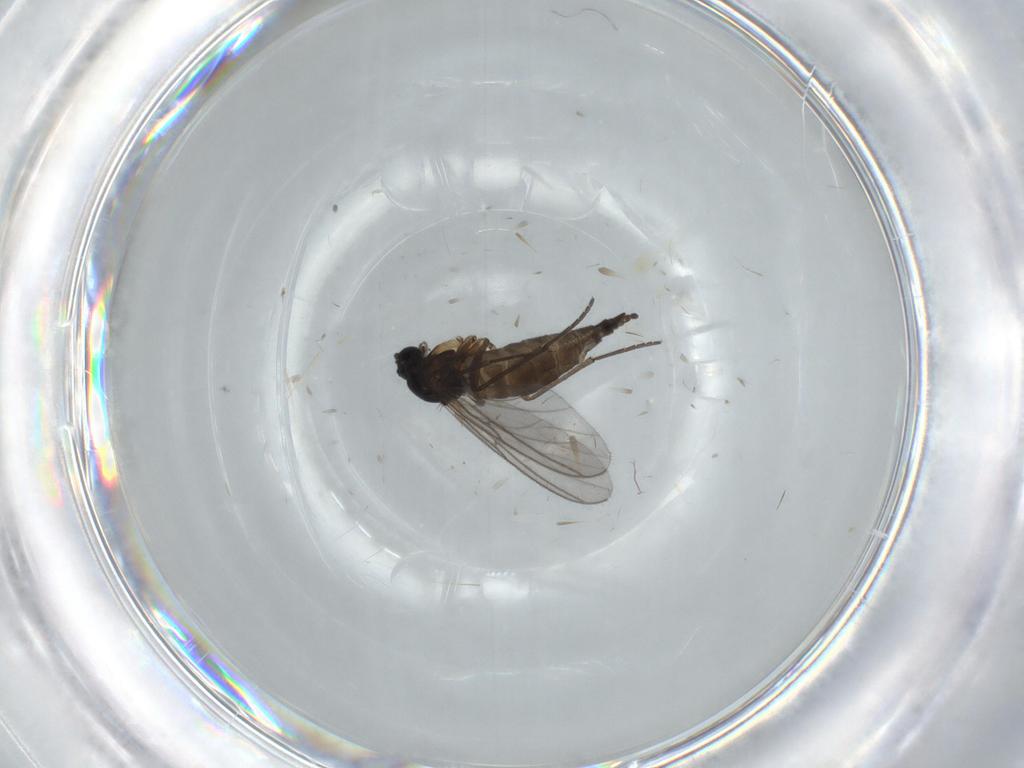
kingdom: Animalia
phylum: Arthropoda
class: Insecta
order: Diptera
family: Sciaridae
